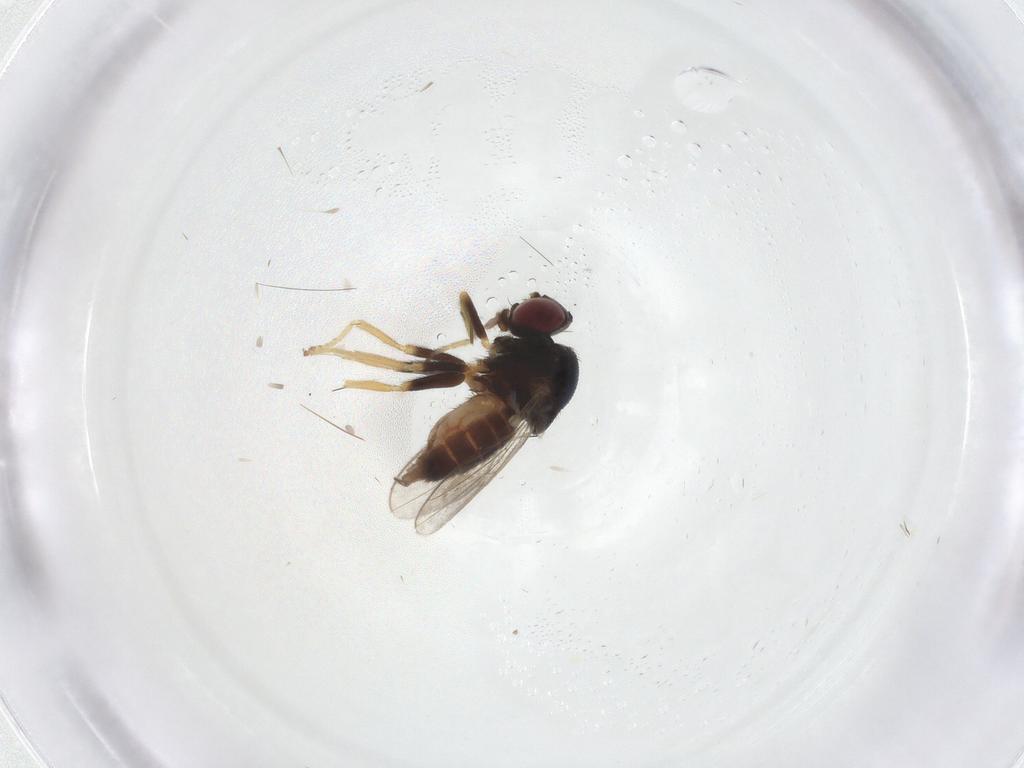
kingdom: Animalia
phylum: Arthropoda
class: Insecta
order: Diptera
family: Chloropidae
